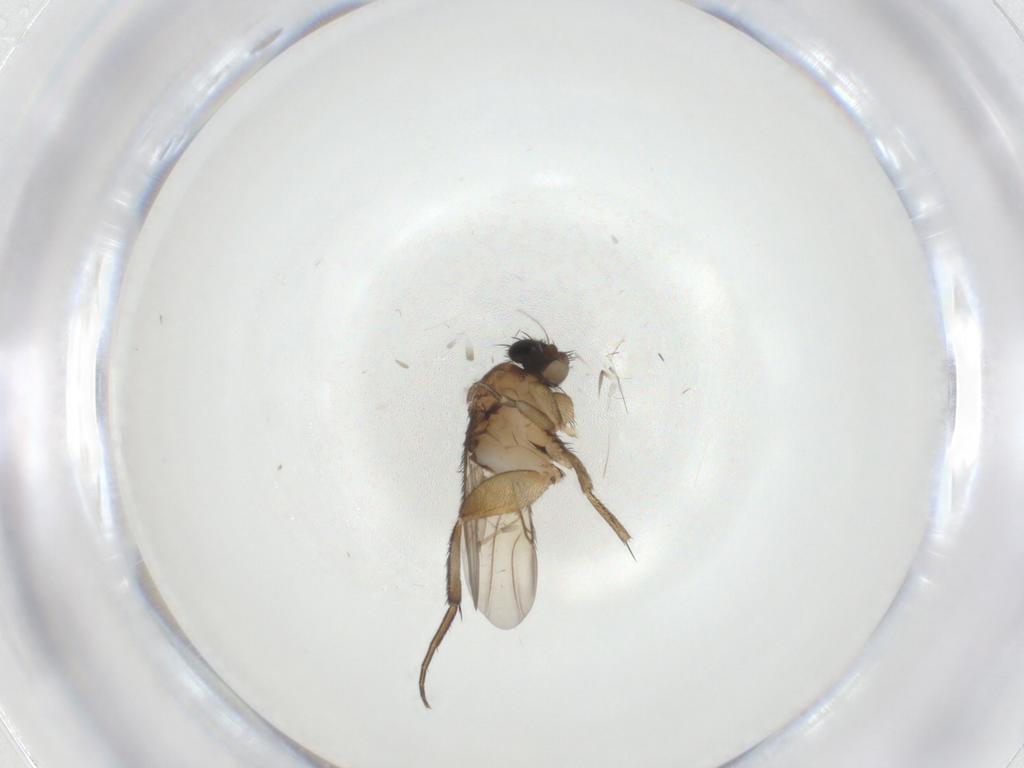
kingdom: Animalia
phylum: Arthropoda
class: Insecta
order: Diptera
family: Phoridae
